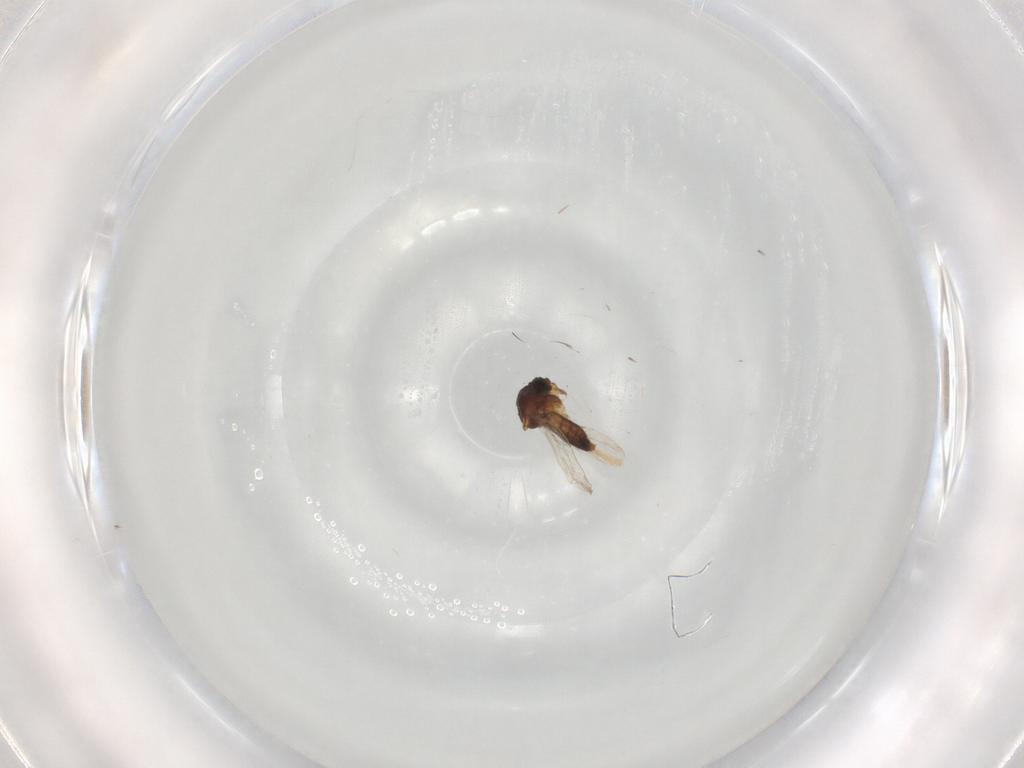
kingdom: Animalia
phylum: Arthropoda
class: Insecta
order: Diptera
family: Ceratopogonidae
